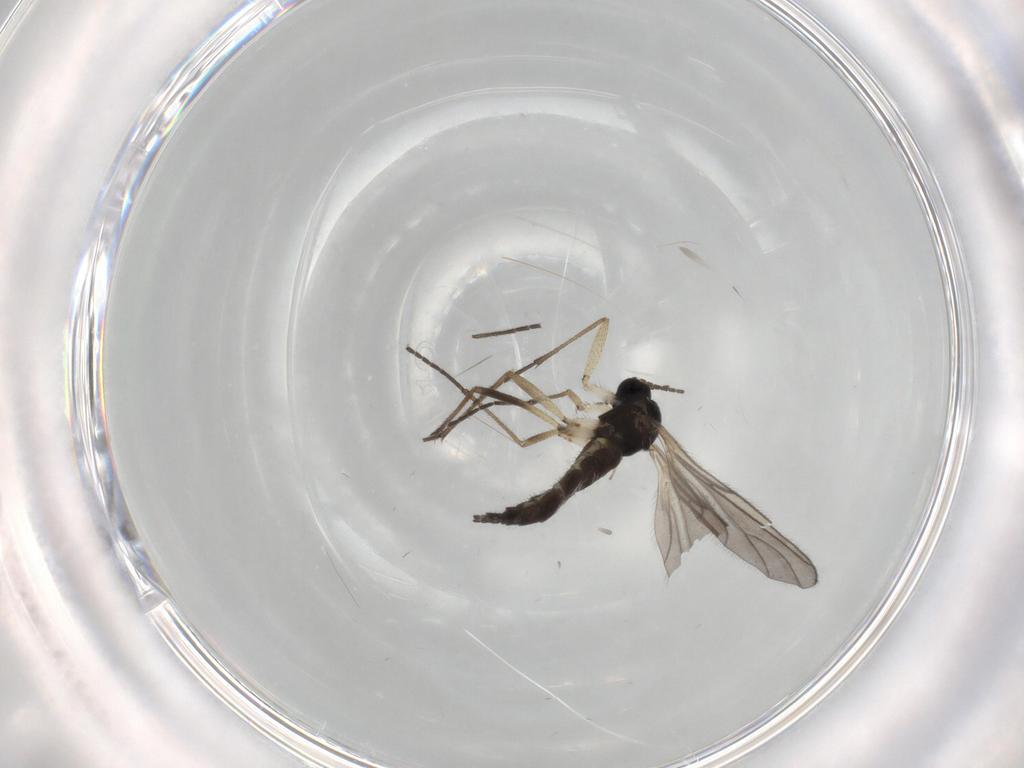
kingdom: Animalia
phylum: Arthropoda
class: Insecta
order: Diptera
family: Sciaridae
